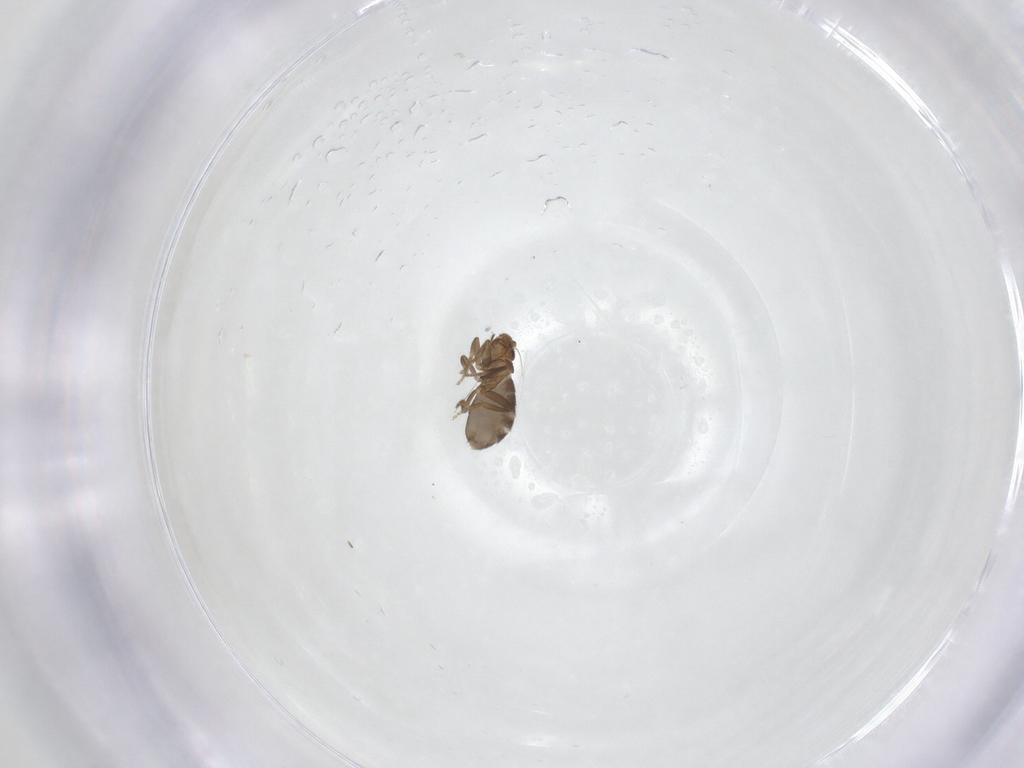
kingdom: Animalia
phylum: Arthropoda
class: Insecta
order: Diptera
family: Phoridae
